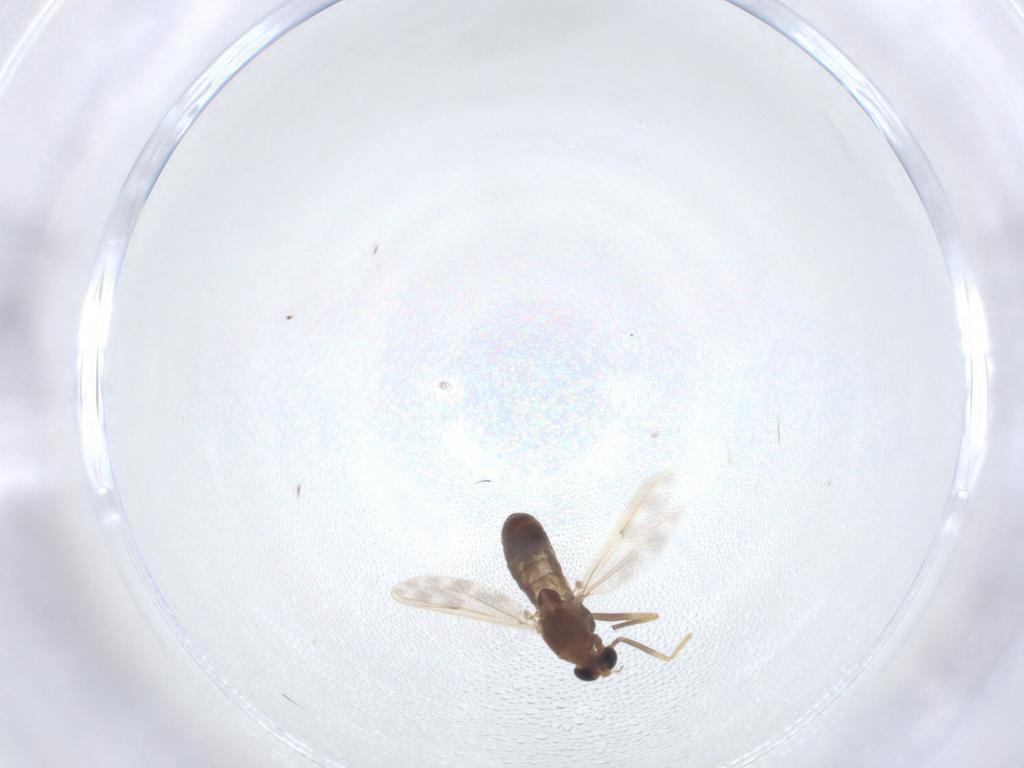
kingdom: Animalia
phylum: Arthropoda
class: Insecta
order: Diptera
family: Chironomidae
